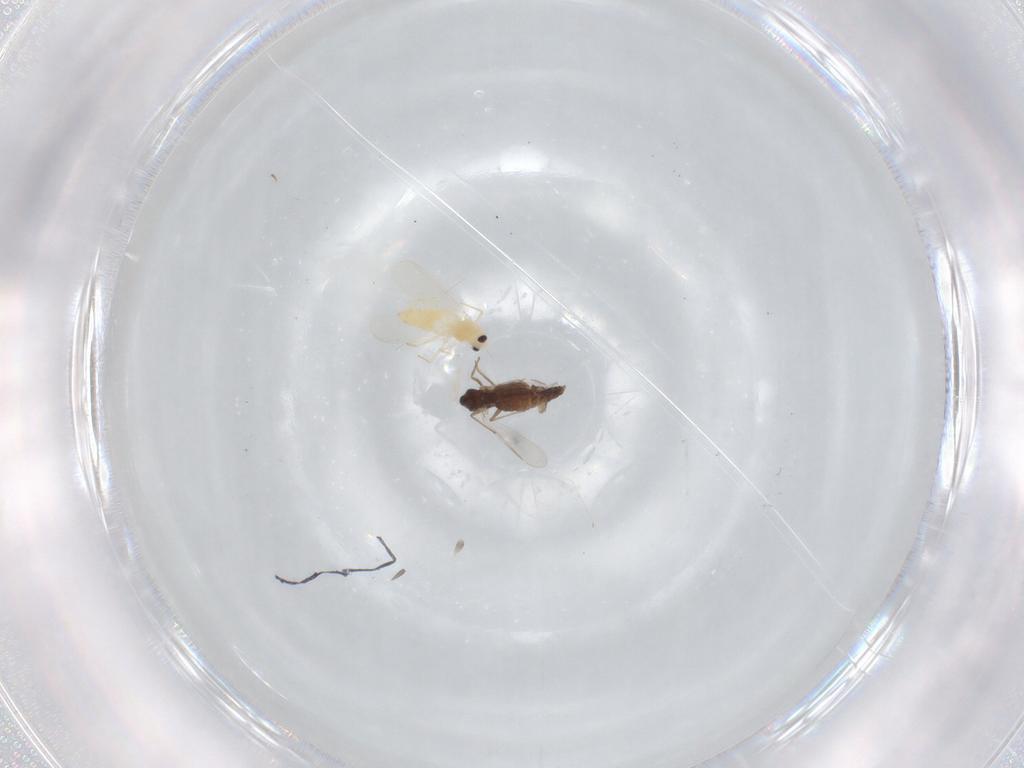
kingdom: Animalia
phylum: Arthropoda
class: Insecta
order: Diptera
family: Chironomidae
